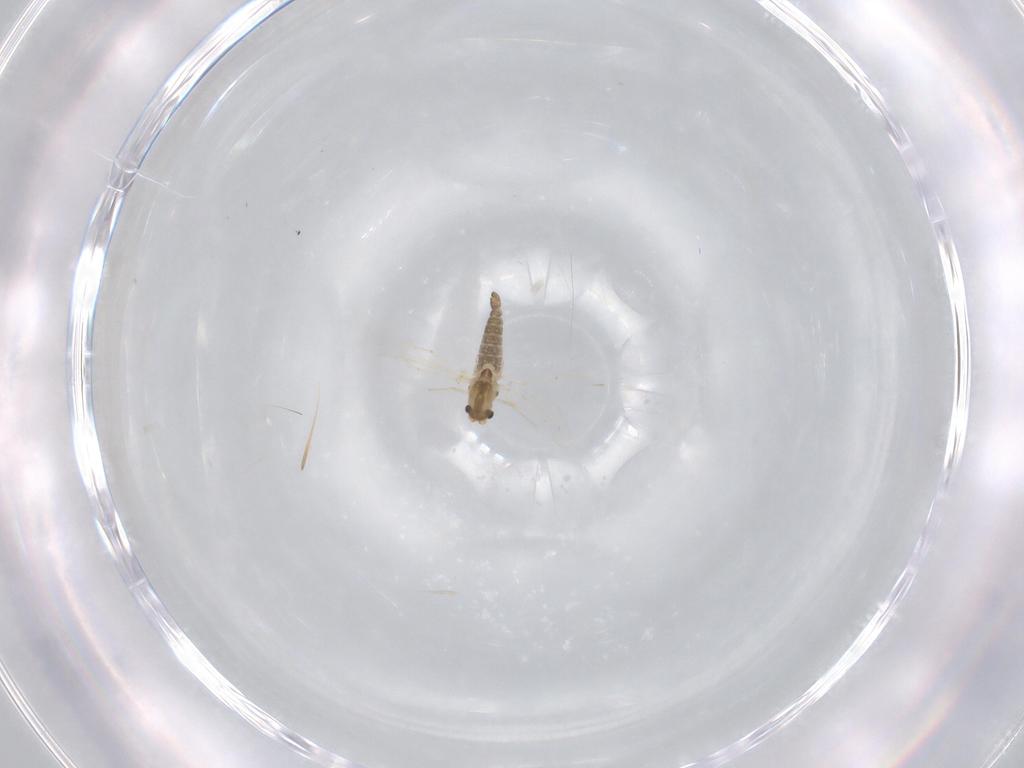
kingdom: Animalia
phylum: Arthropoda
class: Insecta
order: Diptera
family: Chironomidae
